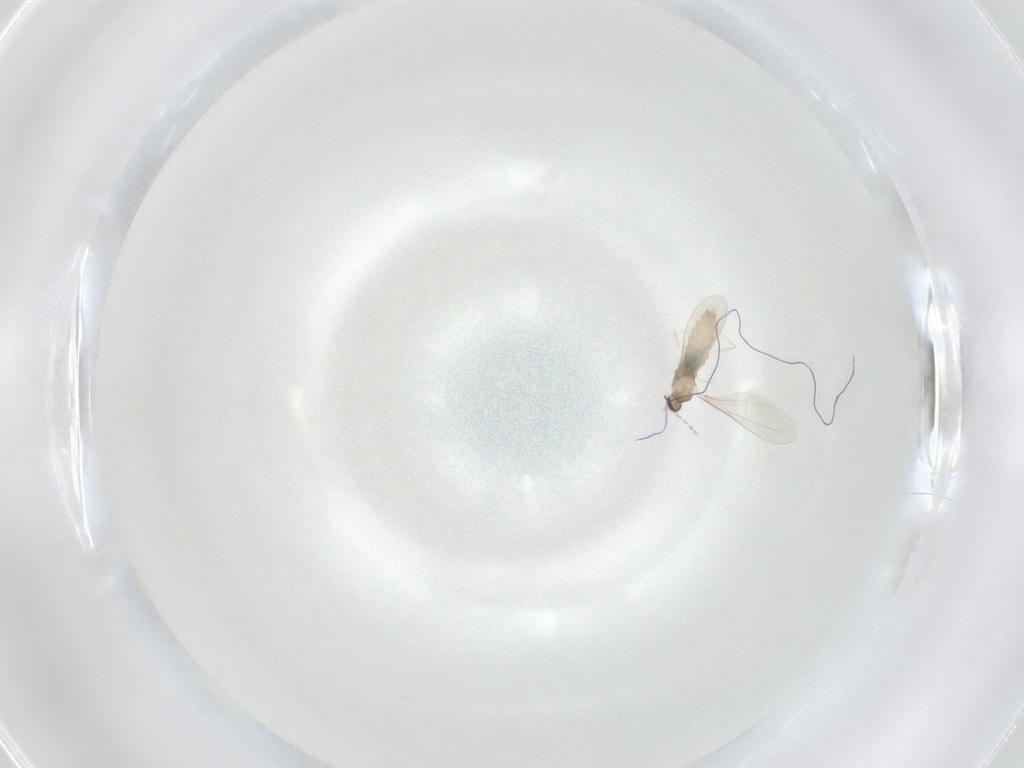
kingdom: Animalia
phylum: Arthropoda
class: Insecta
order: Diptera
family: Cecidomyiidae
